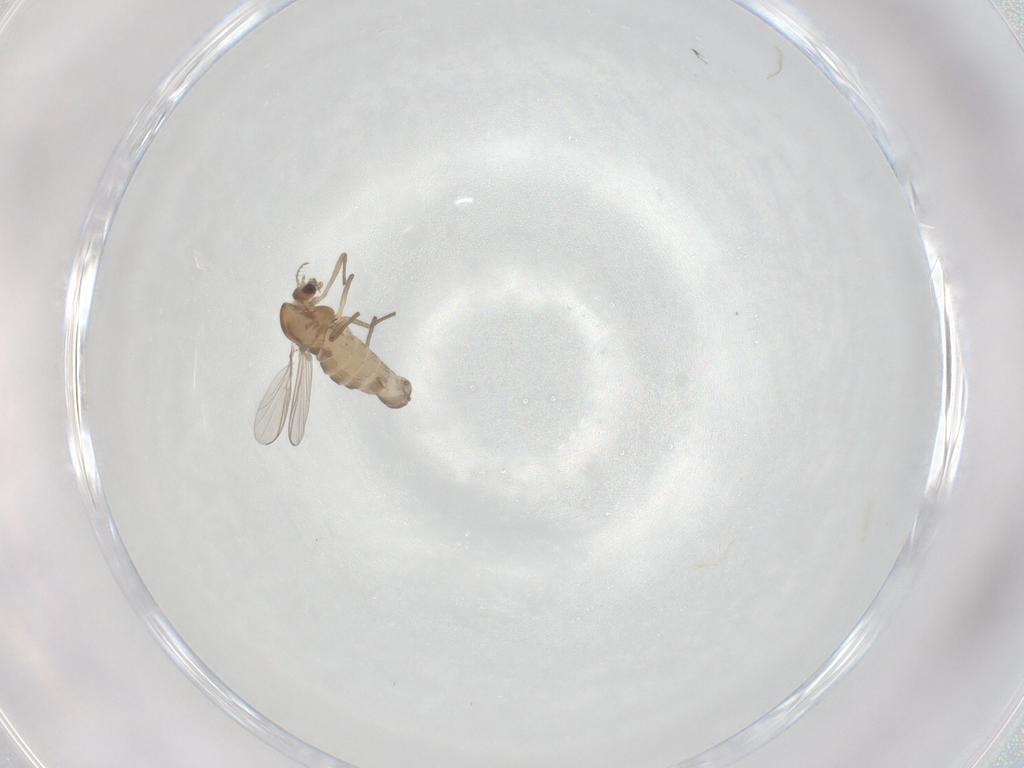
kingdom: Animalia
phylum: Arthropoda
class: Insecta
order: Diptera
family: Chironomidae
